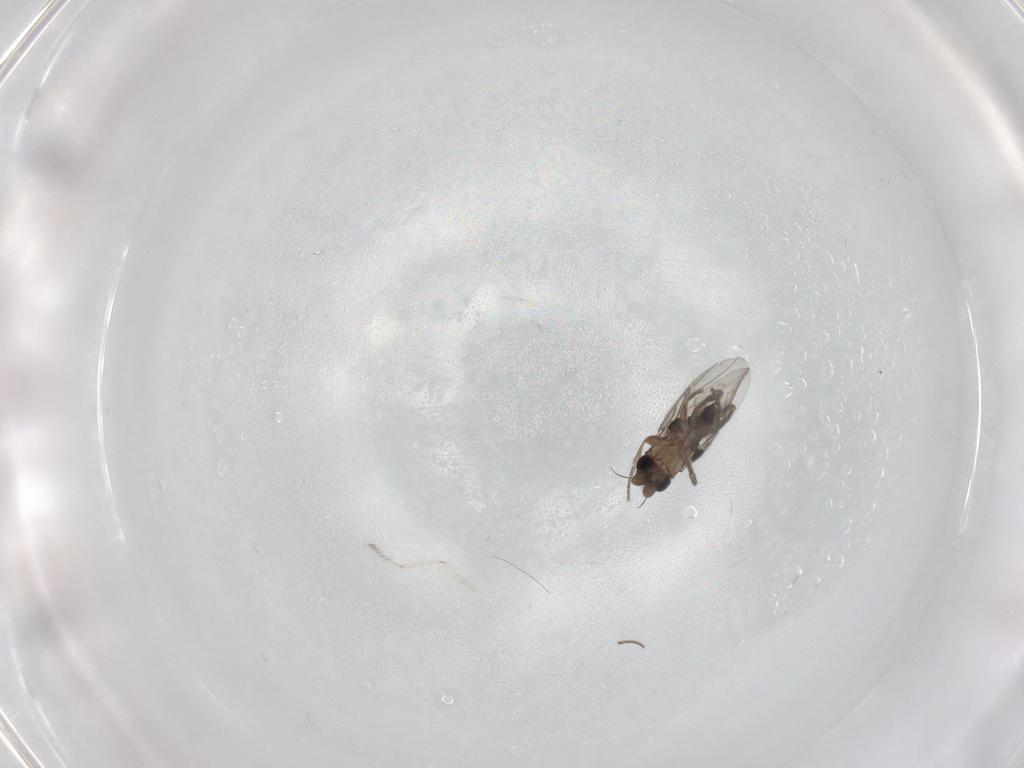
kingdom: Animalia
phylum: Arthropoda
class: Insecta
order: Diptera
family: Cecidomyiidae
